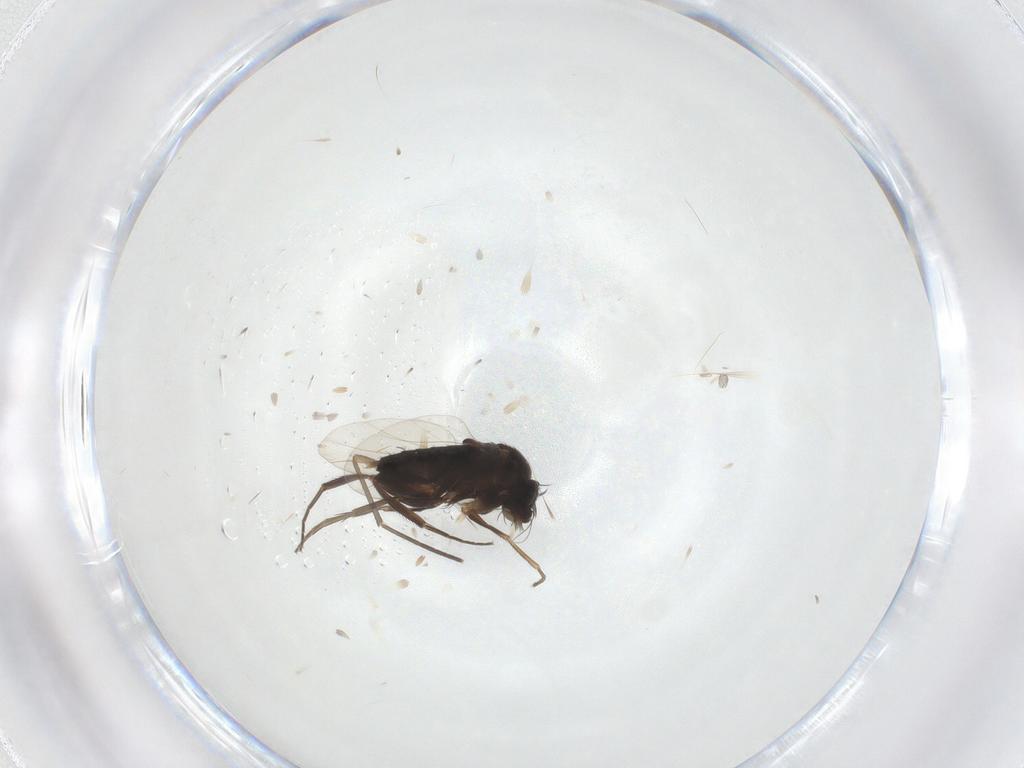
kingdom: Animalia
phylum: Arthropoda
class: Insecta
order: Diptera
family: Phoridae
